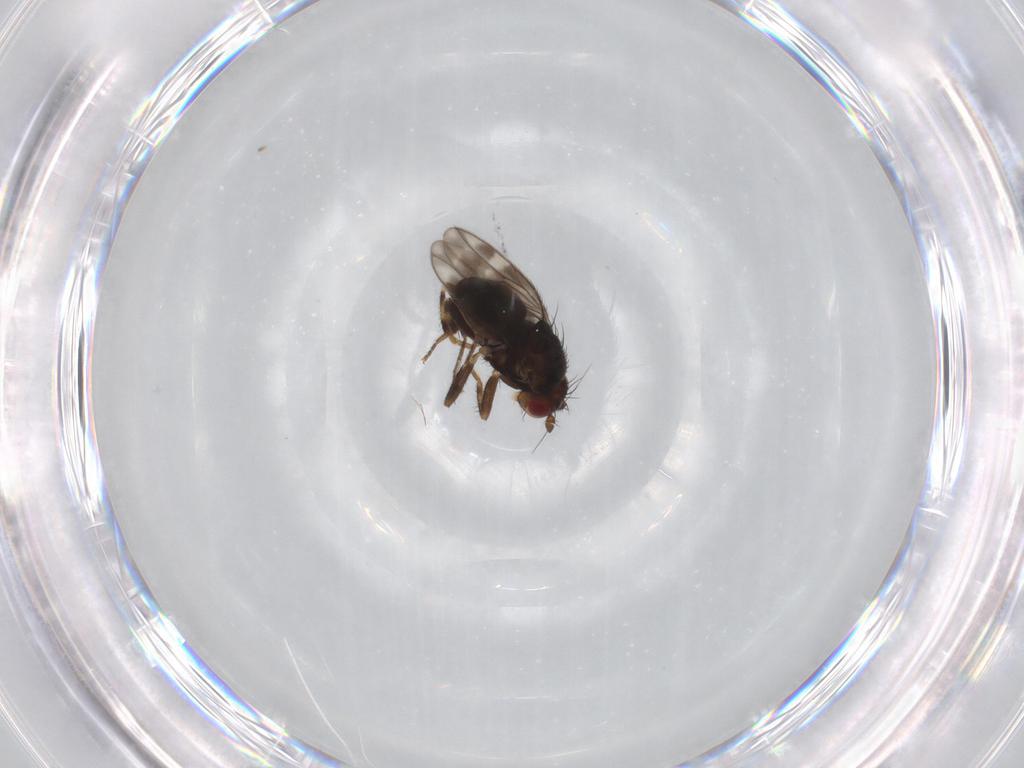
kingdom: Animalia
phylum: Arthropoda
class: Insecta
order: Diptera
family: Sphaeroceridae
